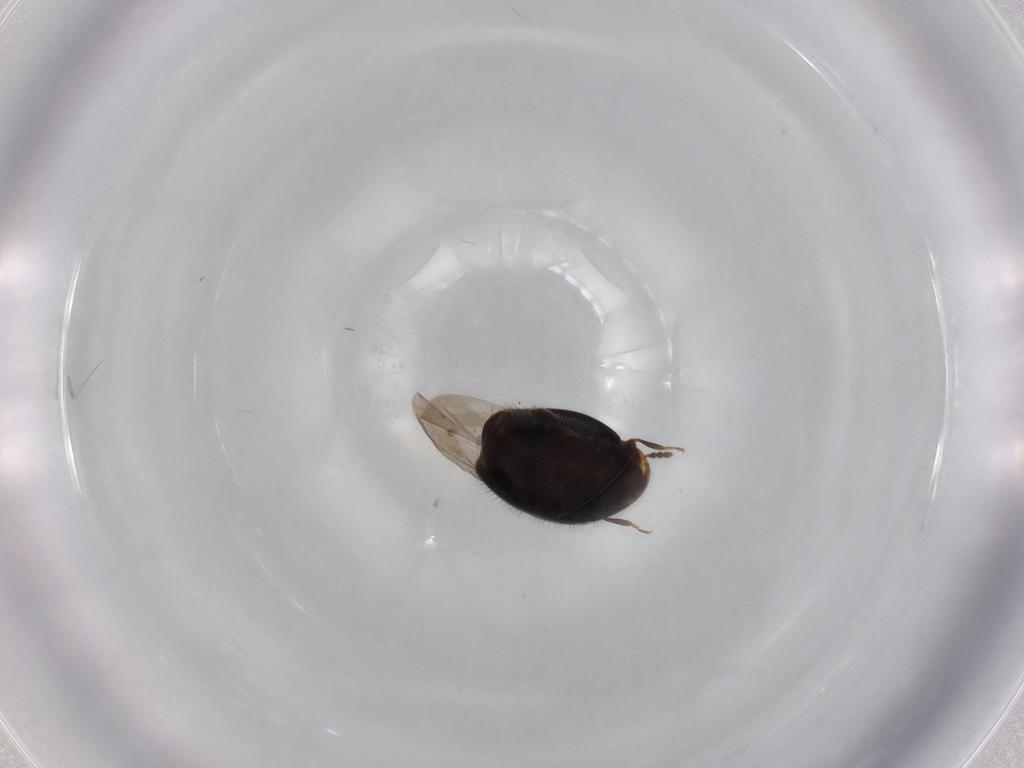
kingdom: Animalia
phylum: Arthropoda
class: Insecta
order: Coleoptera
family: Corylophidae
